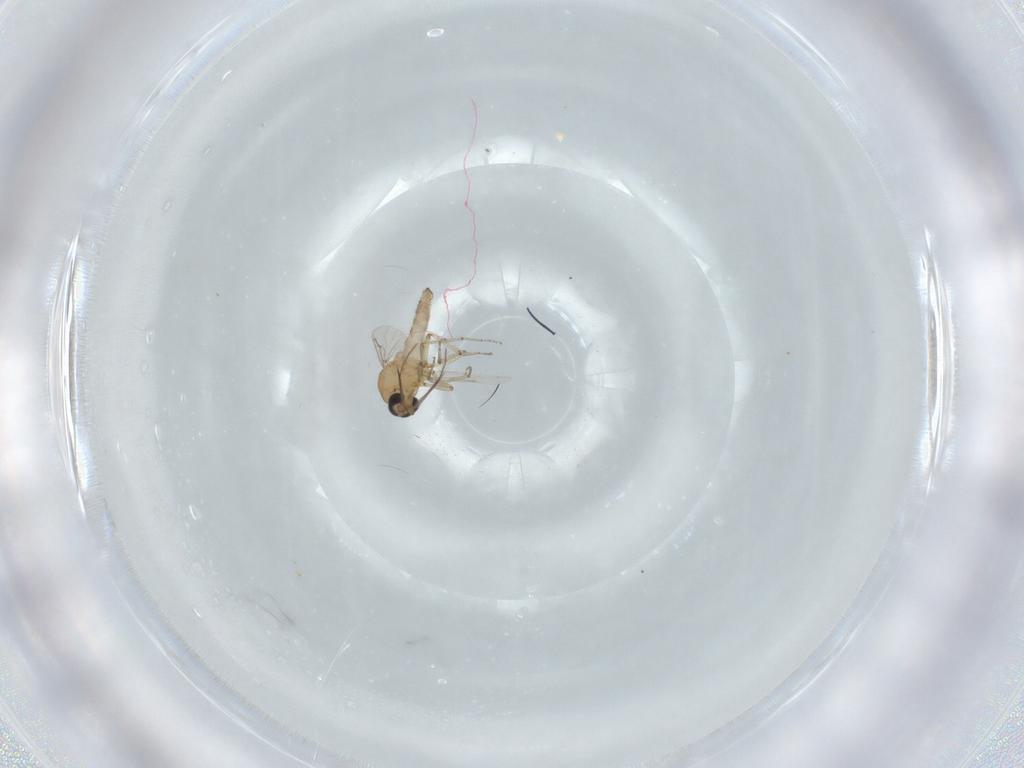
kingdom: Animalia
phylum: Arthropoda
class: Insecta
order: Diptera
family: Ceratopogonidae
